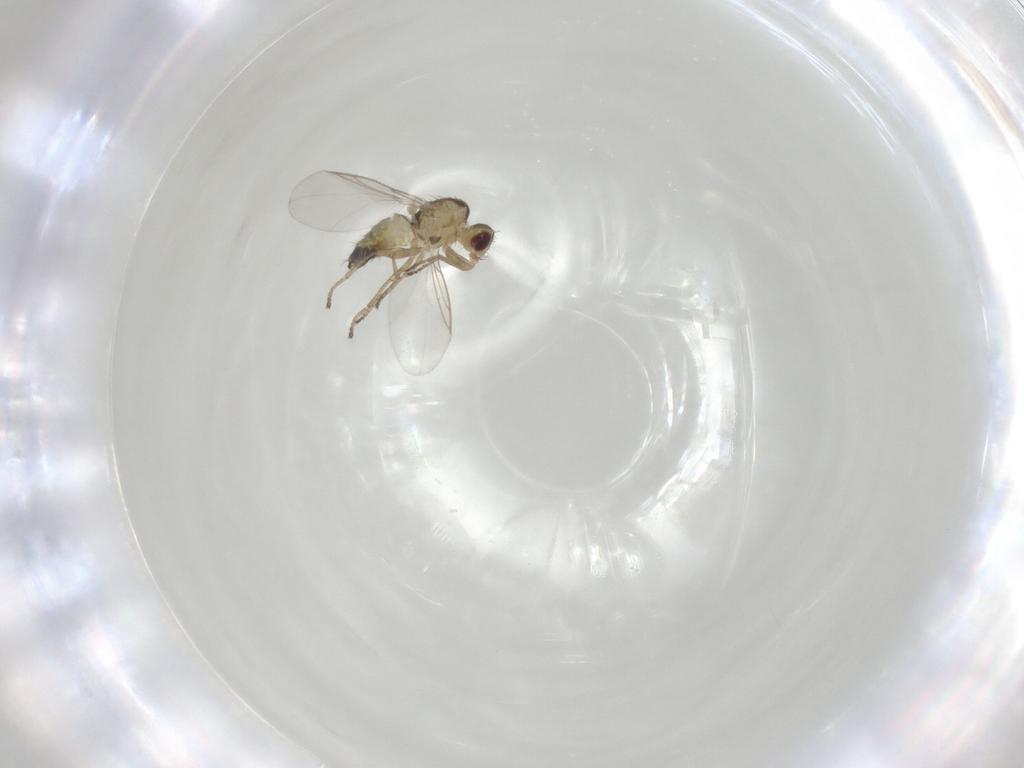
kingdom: Animalia
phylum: Arthropoda
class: Insecta
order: Diptera
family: Agromyzidae
